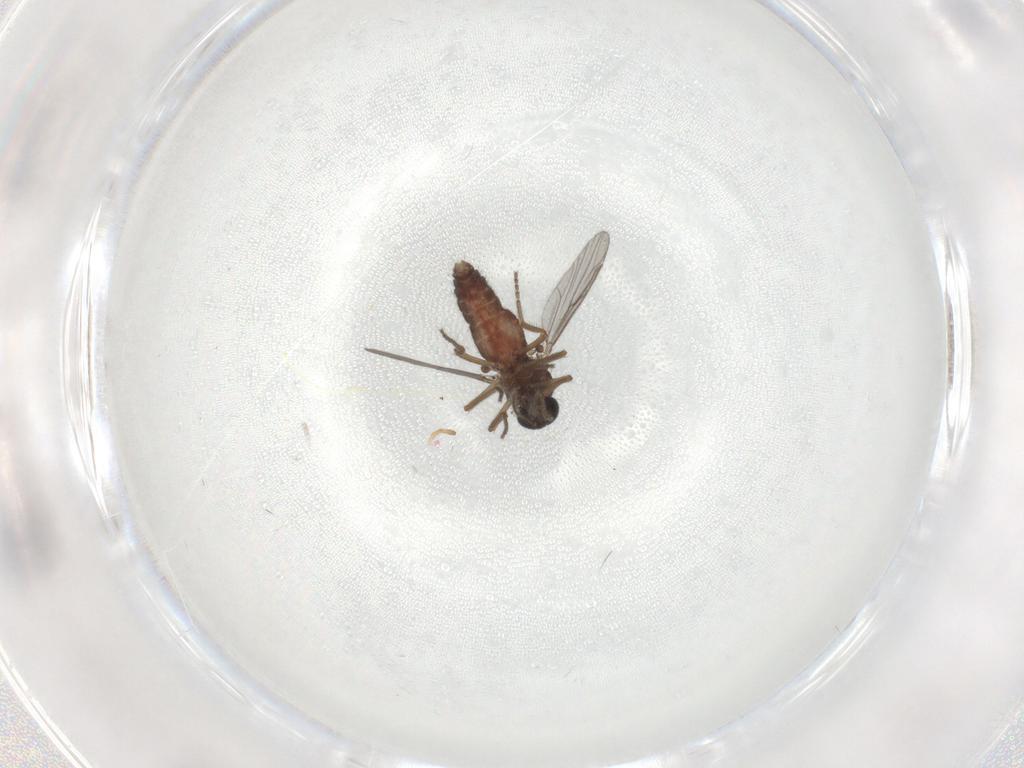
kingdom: Animalia
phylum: Arthropoda
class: Insecta
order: Diptera
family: Ceratopogonidae
